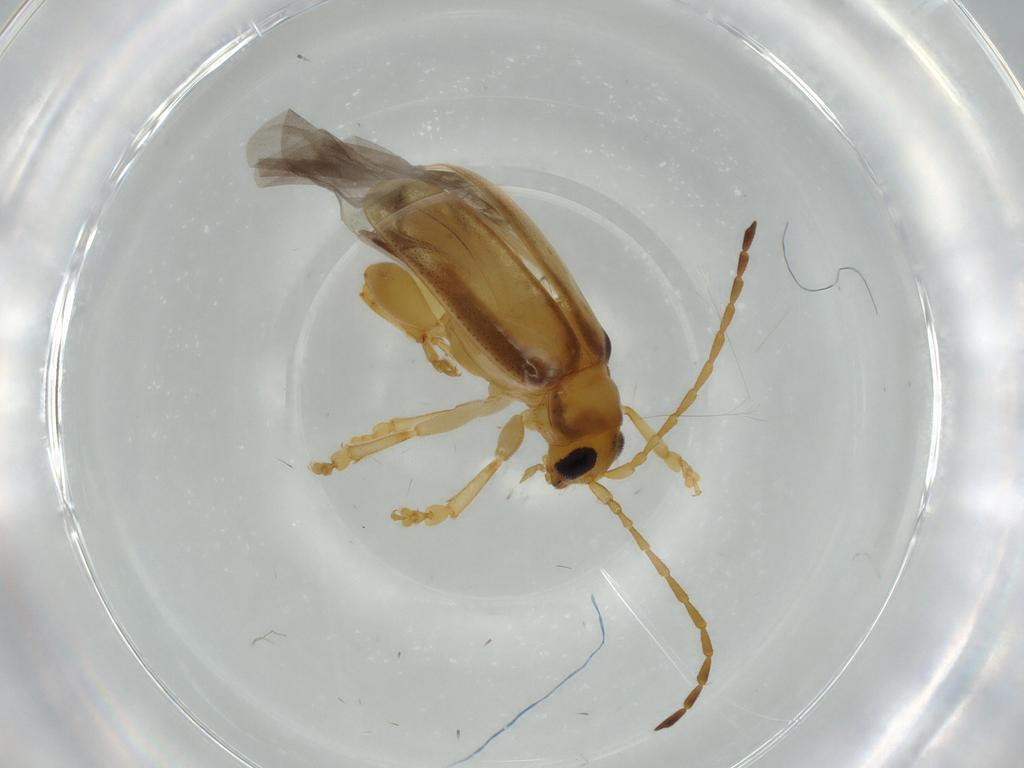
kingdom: Animalia
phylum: Arthropoda
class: Insecta
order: Coleoptera
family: Chrysomelidae
